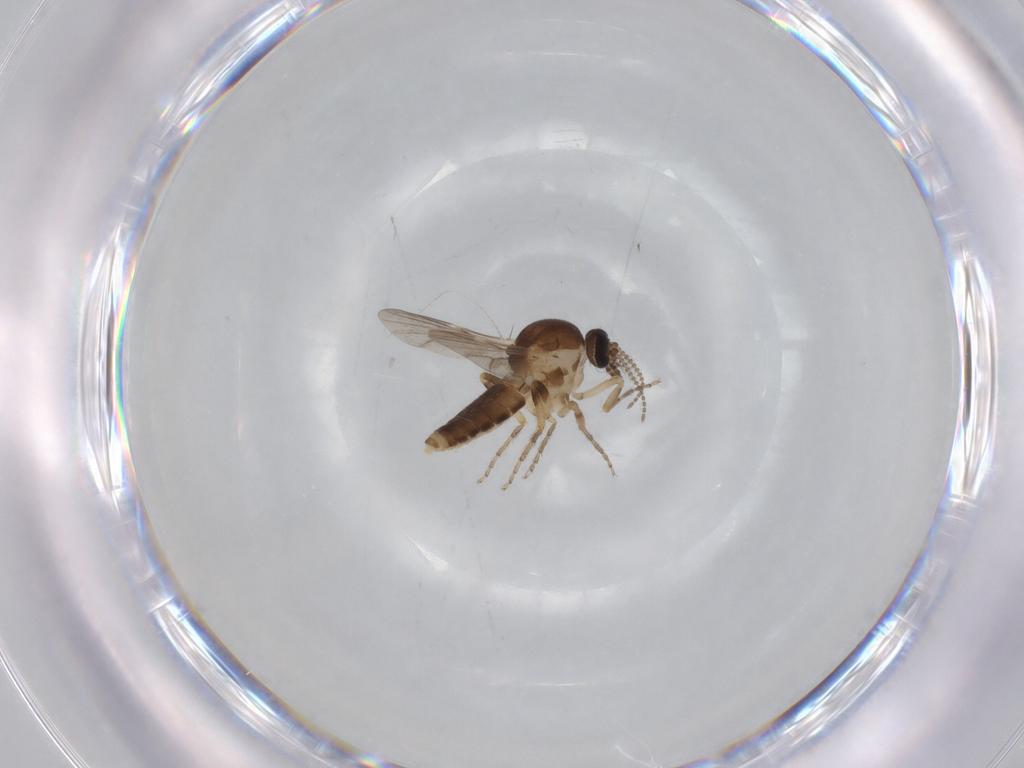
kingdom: Animalia
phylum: Arthropoda
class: Insecta
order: Diptera
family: Ceratopogonidae
